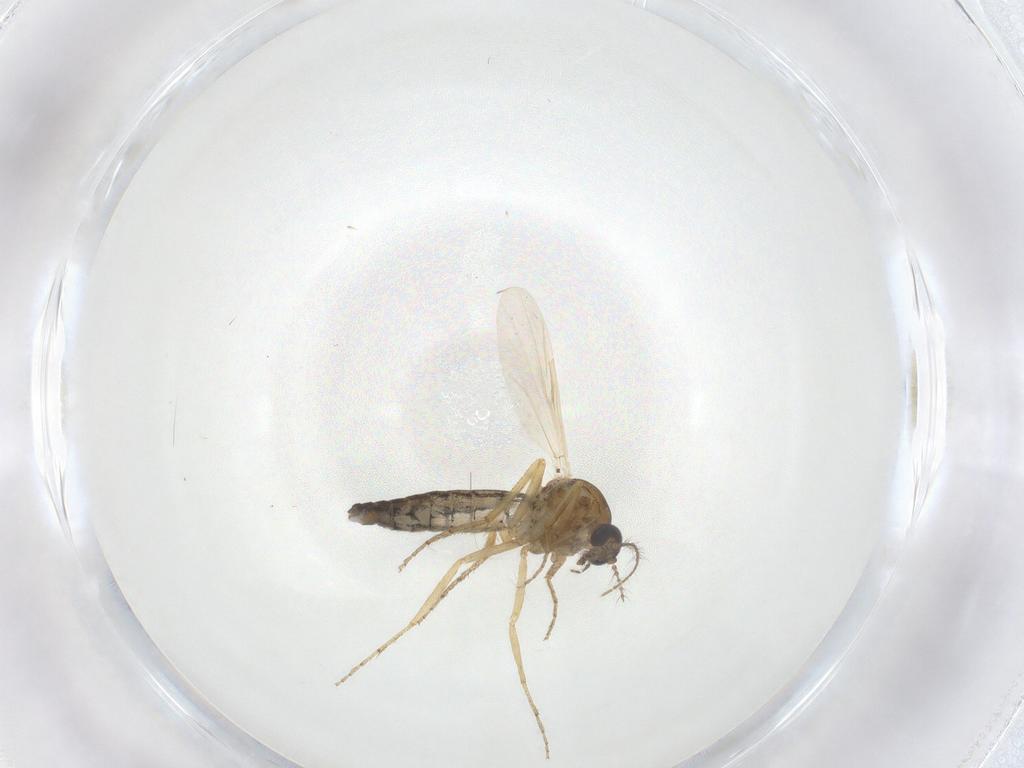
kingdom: Animalia
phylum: Arthropoda
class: Insecta
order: Diptera
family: Ceratopogonidae
